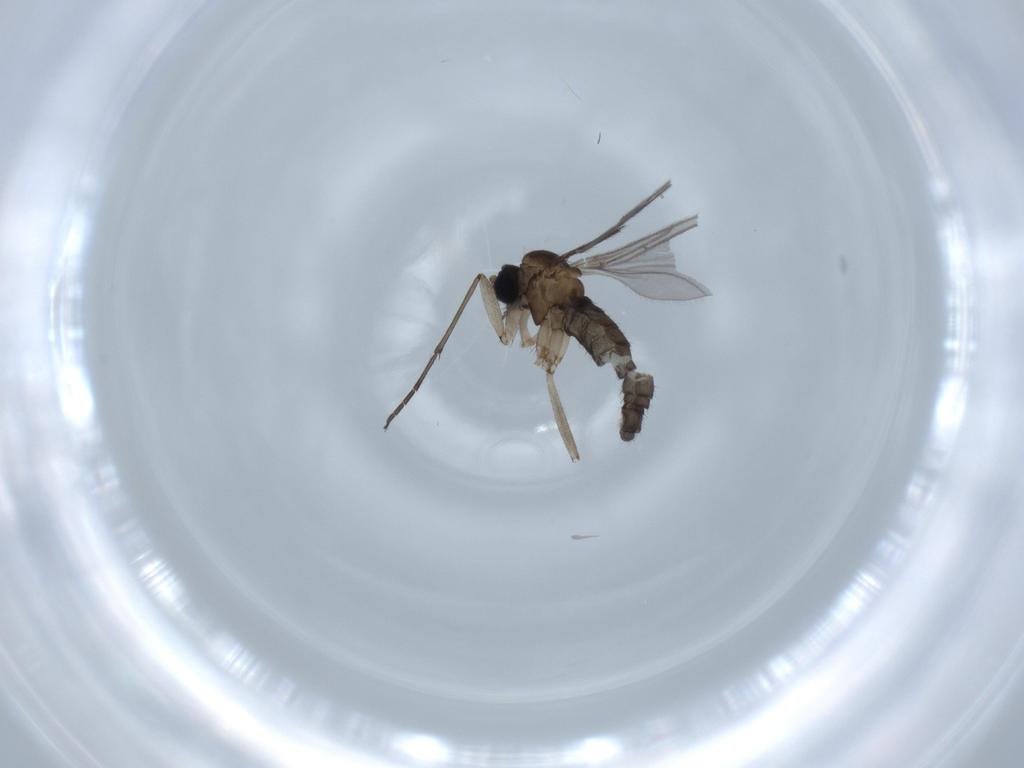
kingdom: Animalia
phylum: Arthropoda
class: Insecta
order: Diptera
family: Sciaridae
